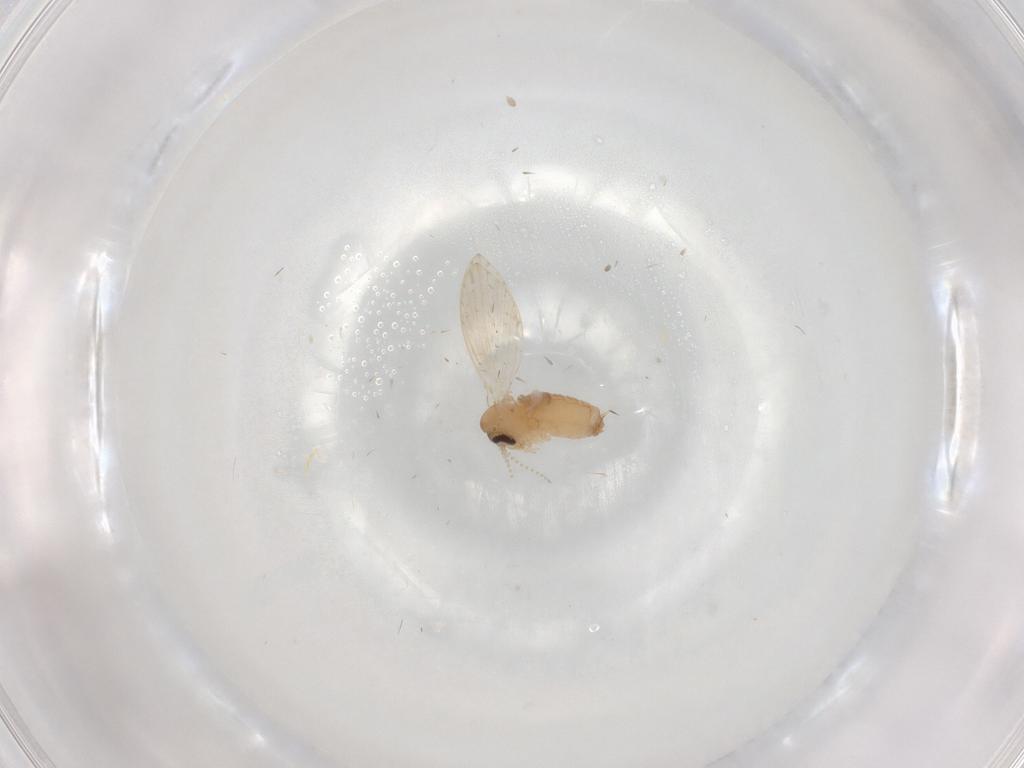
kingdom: Animalia
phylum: Arthropoda
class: Insecta
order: Diptera
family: Psychodidae
